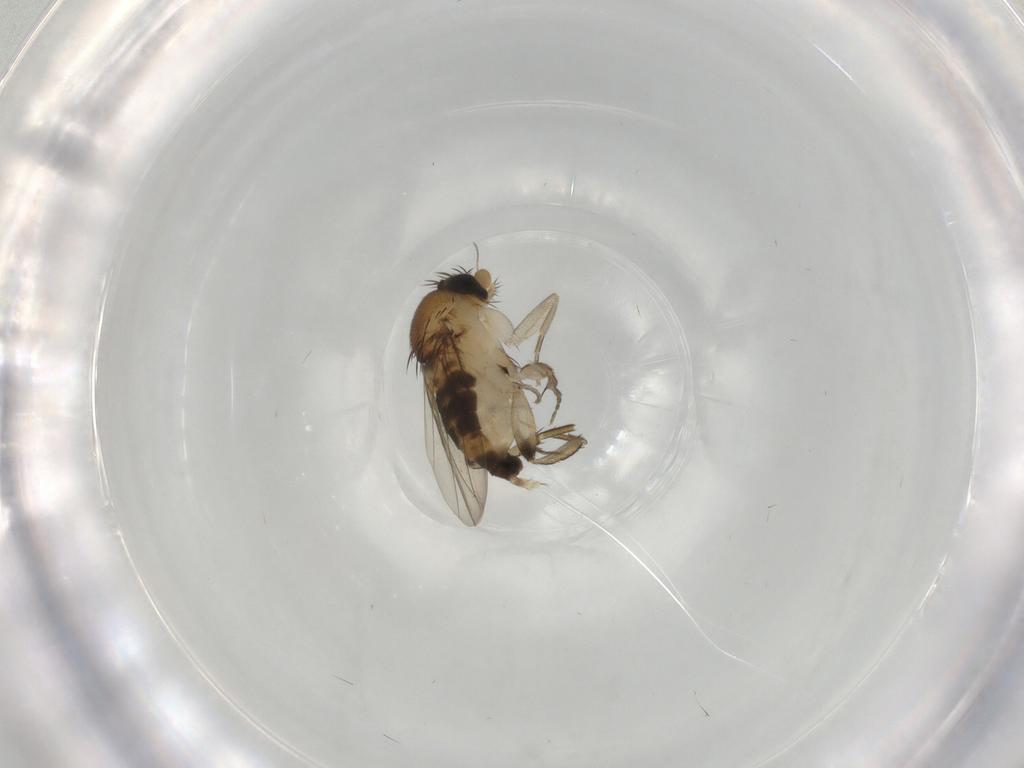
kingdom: Animalia
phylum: Arthropoda
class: Insecta
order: Diptera
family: Phoridae
